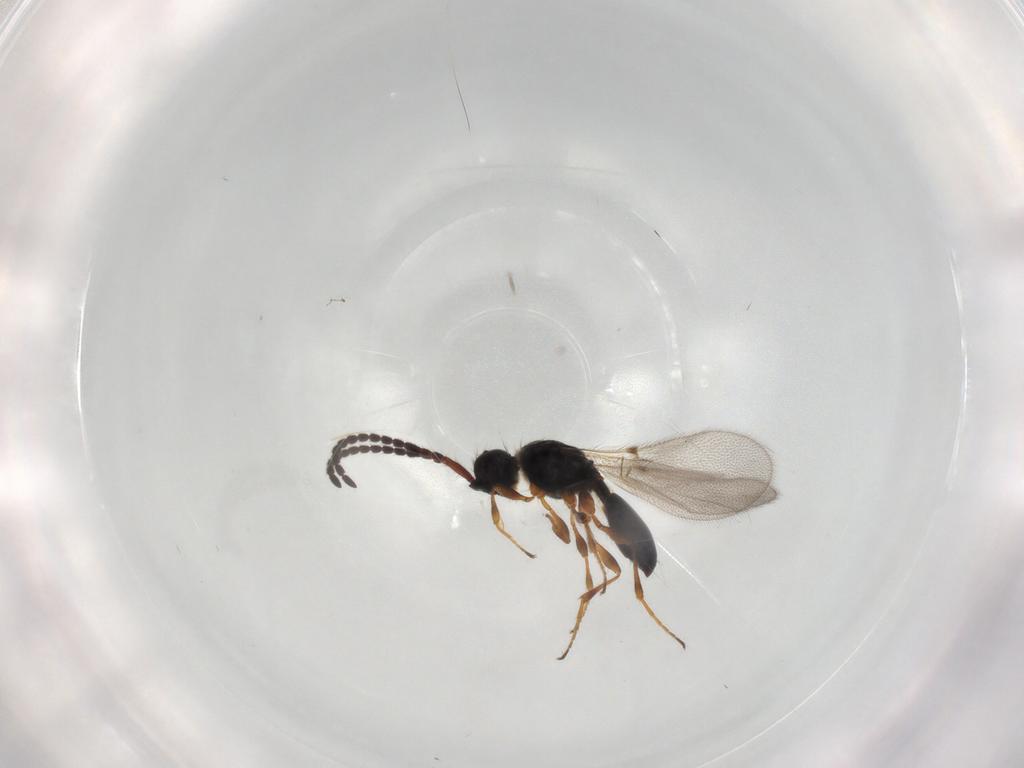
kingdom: Animalia
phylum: Arthropoda
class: Insecta
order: Hymenoptera
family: Diapriidae
